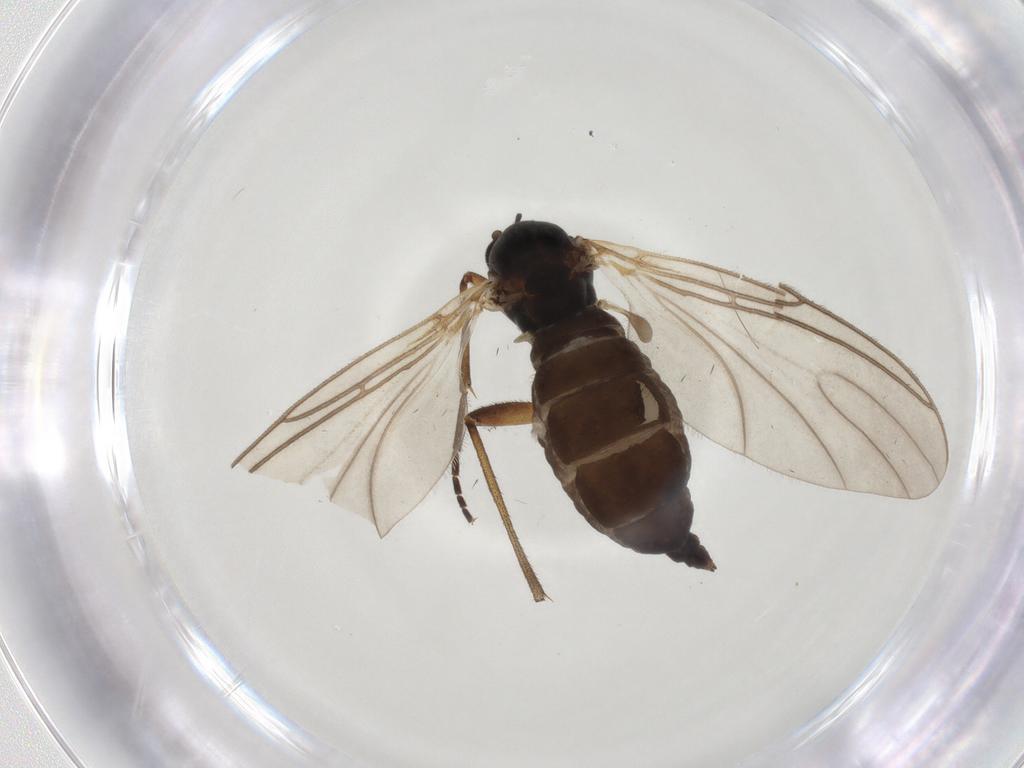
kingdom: Animalia
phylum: Arthropoda
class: Insecta
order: Diptera
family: Sciaridae
